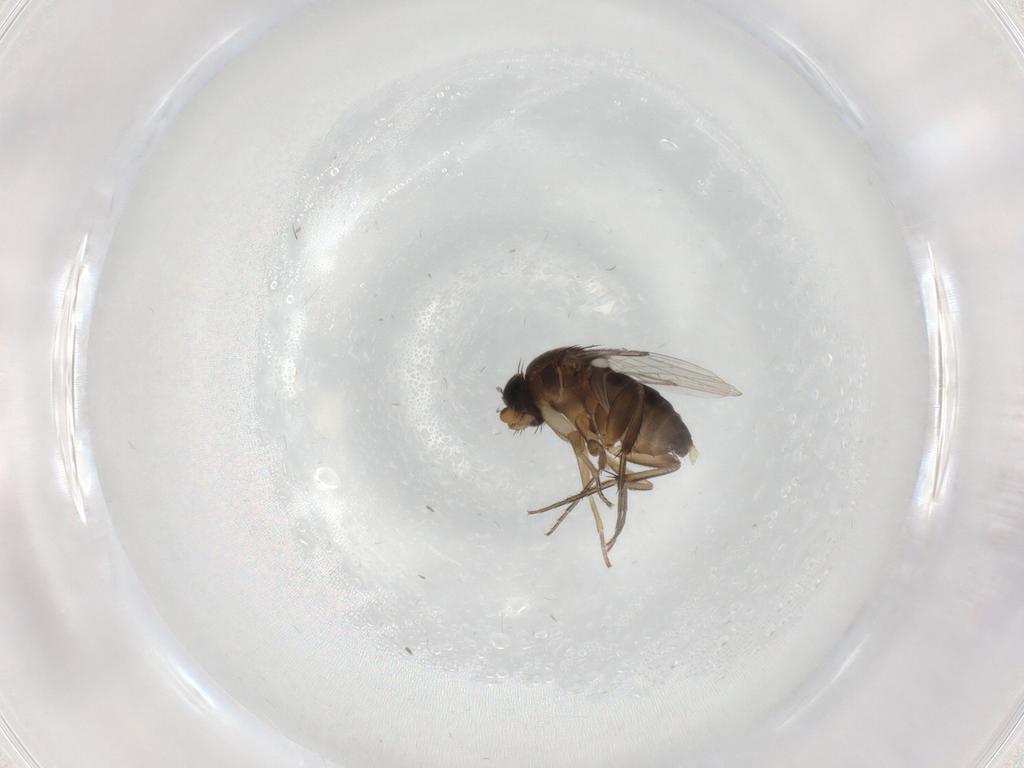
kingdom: Animalia
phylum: Arthropoda
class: Insecta
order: Diptera
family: Phoridae
